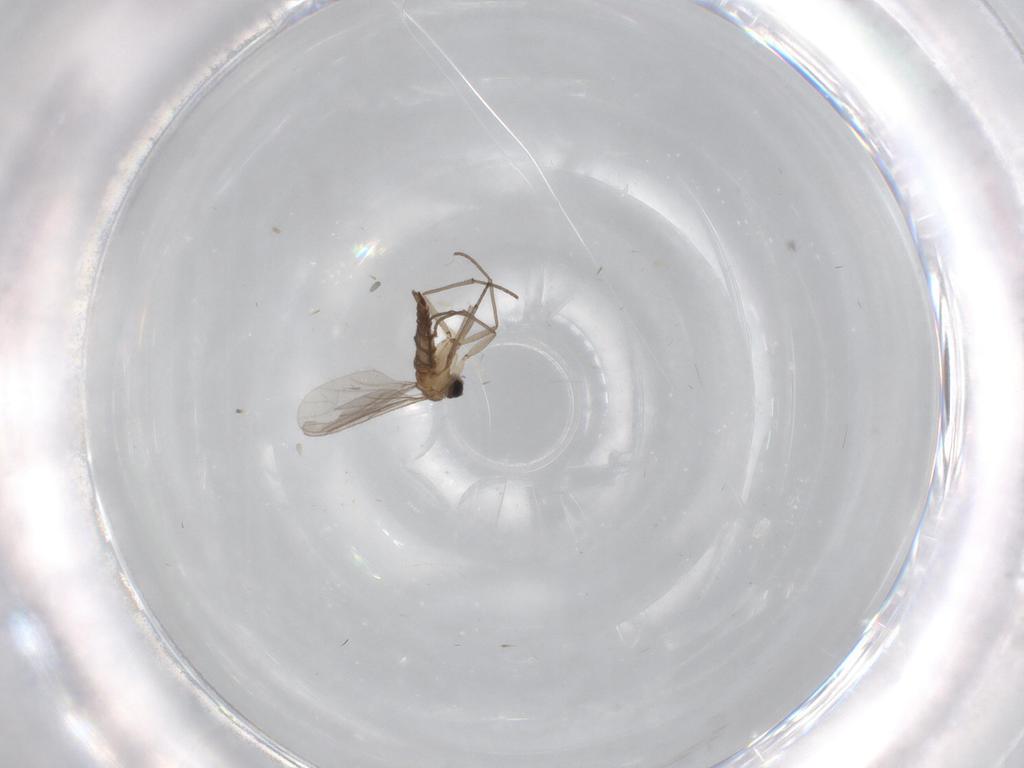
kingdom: Animalia
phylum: Arthropoda
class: Insecta
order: Diptera
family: Sciaridae
